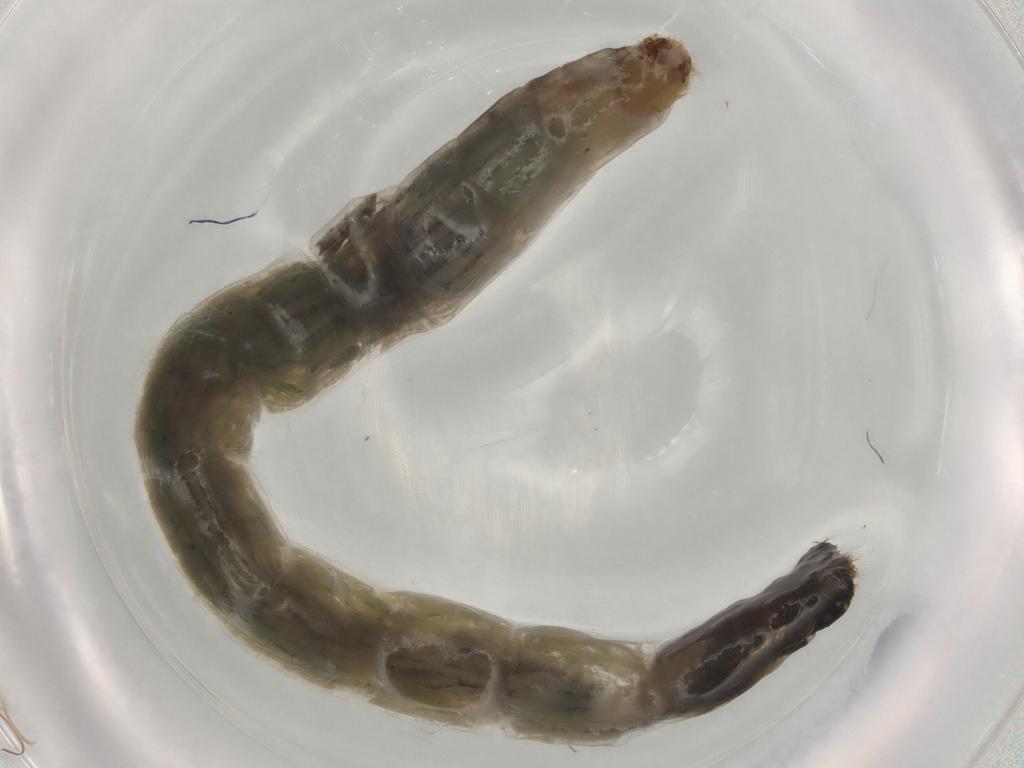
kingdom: Animalia
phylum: Arthropoda
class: Insecta
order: Diptera
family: Chironomidae
